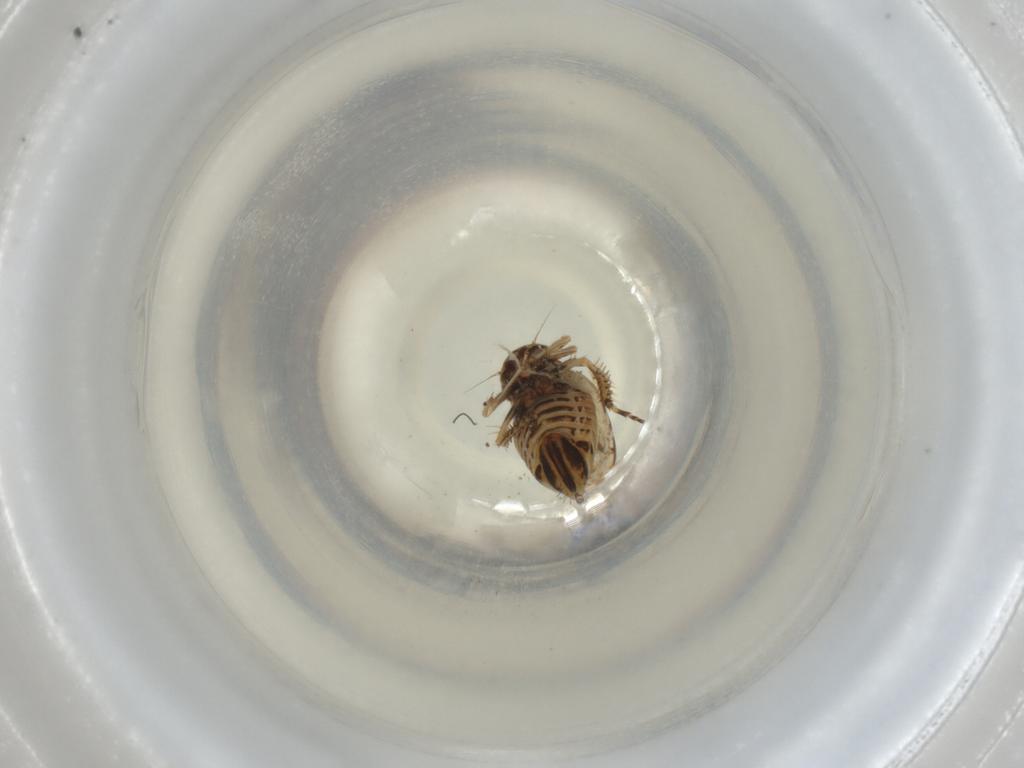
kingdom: Animalia
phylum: Arthropoda
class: Insecta
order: Hemiptera
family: Cicadellidae
